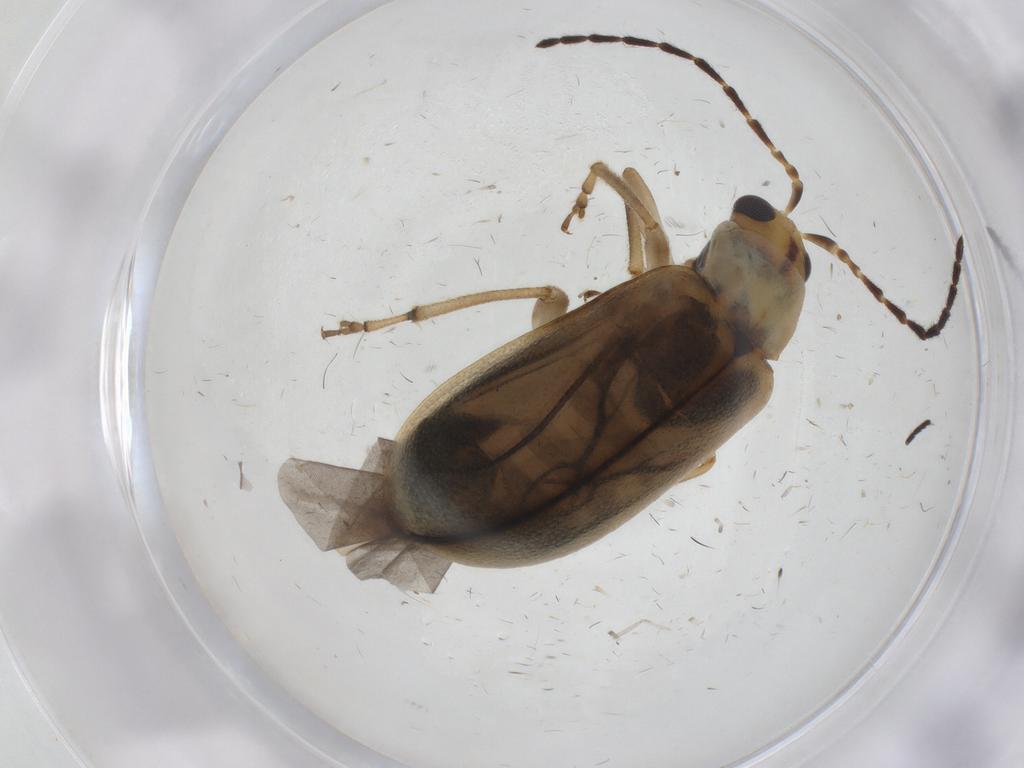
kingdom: Animalia
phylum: Arthropoda
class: Insecta
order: Coleoptera
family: Chrysomelidae
